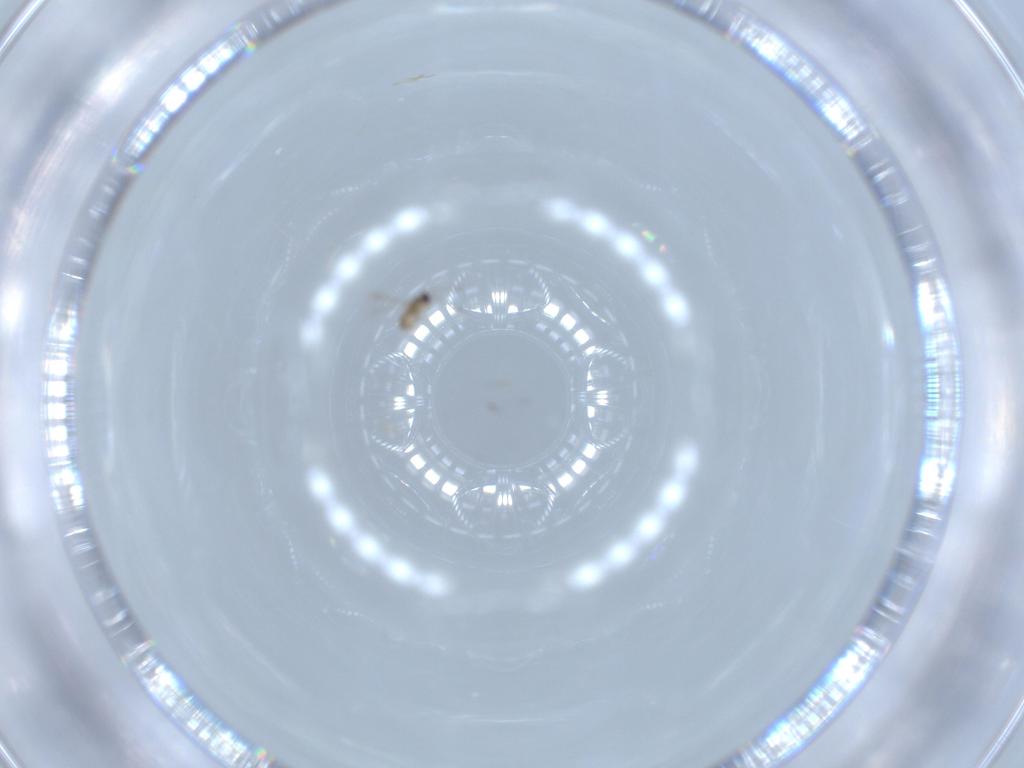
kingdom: Animalia
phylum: Arthropoda
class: Insecta
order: Hymenoptera
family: Mymaridae
